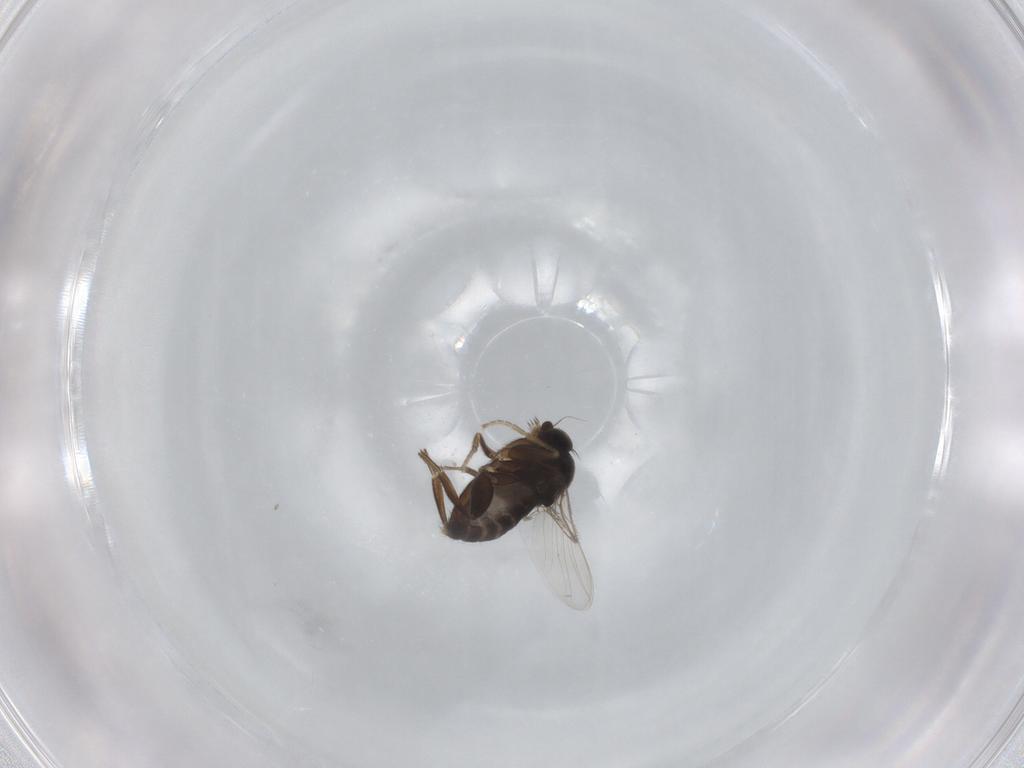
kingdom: Animalia
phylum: Arthropoda
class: Insecta
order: Diptera
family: Phoridae
